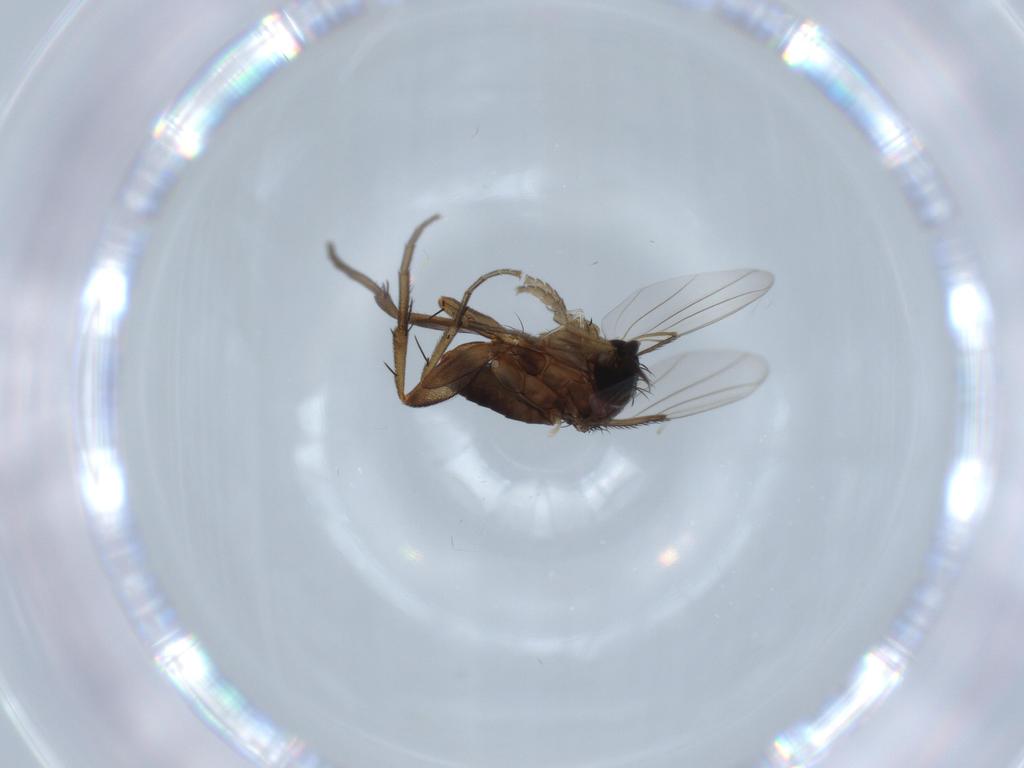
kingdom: Animalia
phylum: Arthropoda
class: Insecta
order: Diptera
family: Phoridae
